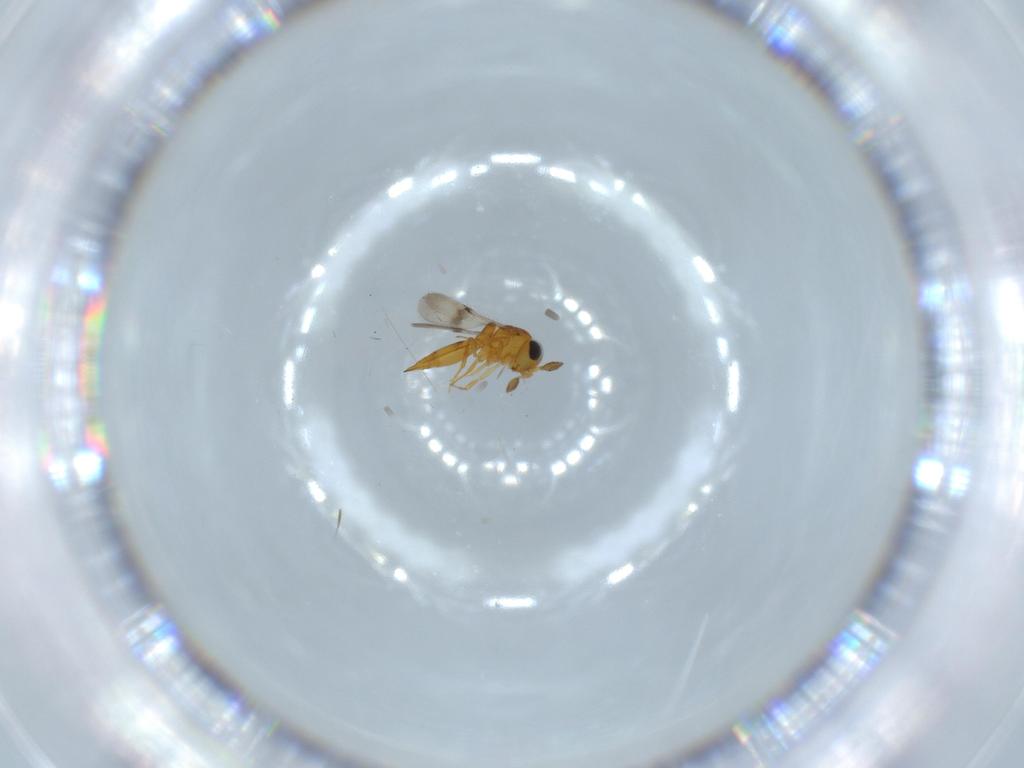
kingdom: Animalia
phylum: Arthropoda
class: Insecta
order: Hymenoptera
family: Scelionidae
